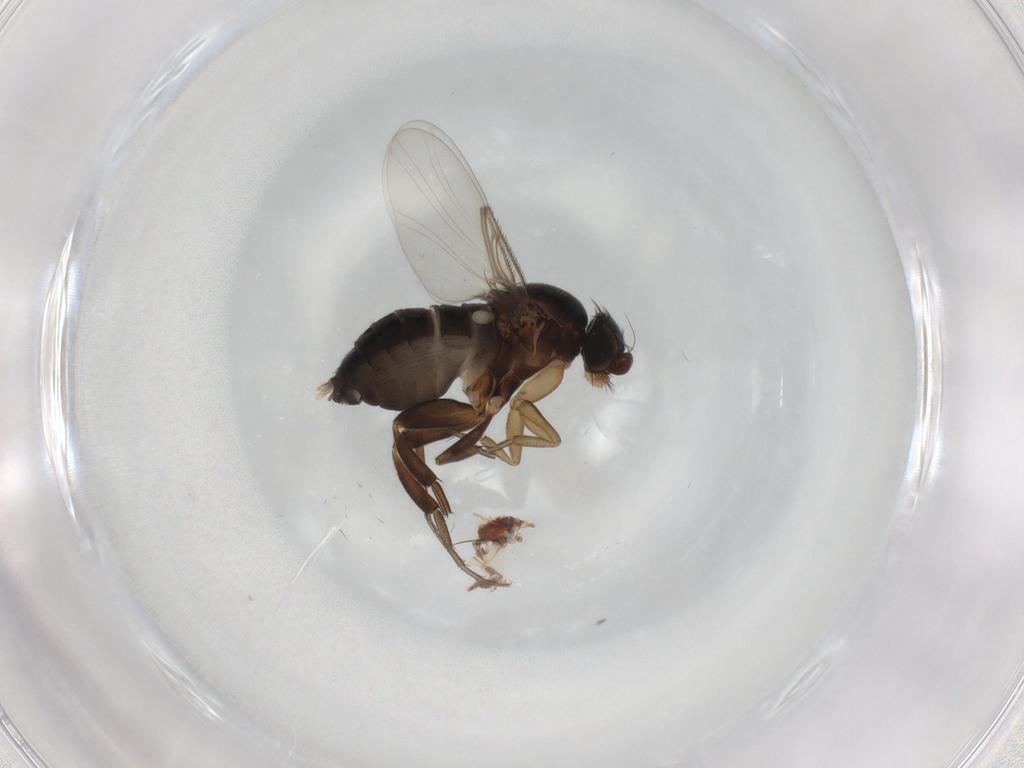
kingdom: Animalia
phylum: Arthropoda
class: Insecta
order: Diptera
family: Phoridae
